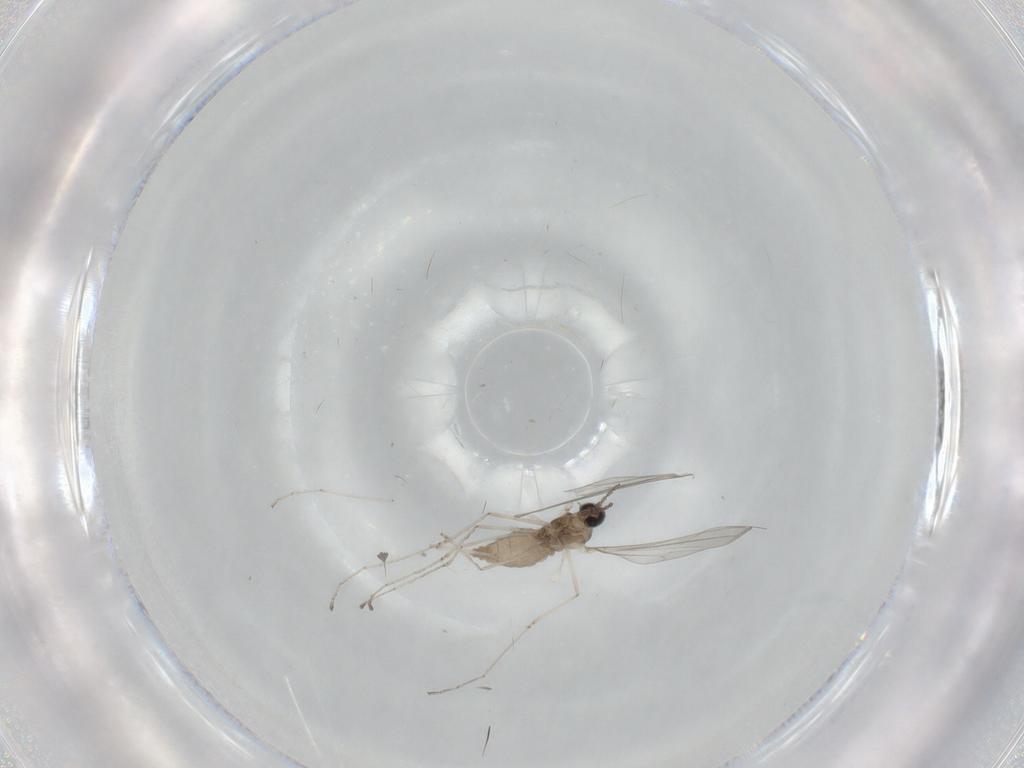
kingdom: Animalia
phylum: Arthropoda
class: Insecta
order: Diptera
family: Cecidomyiidae
